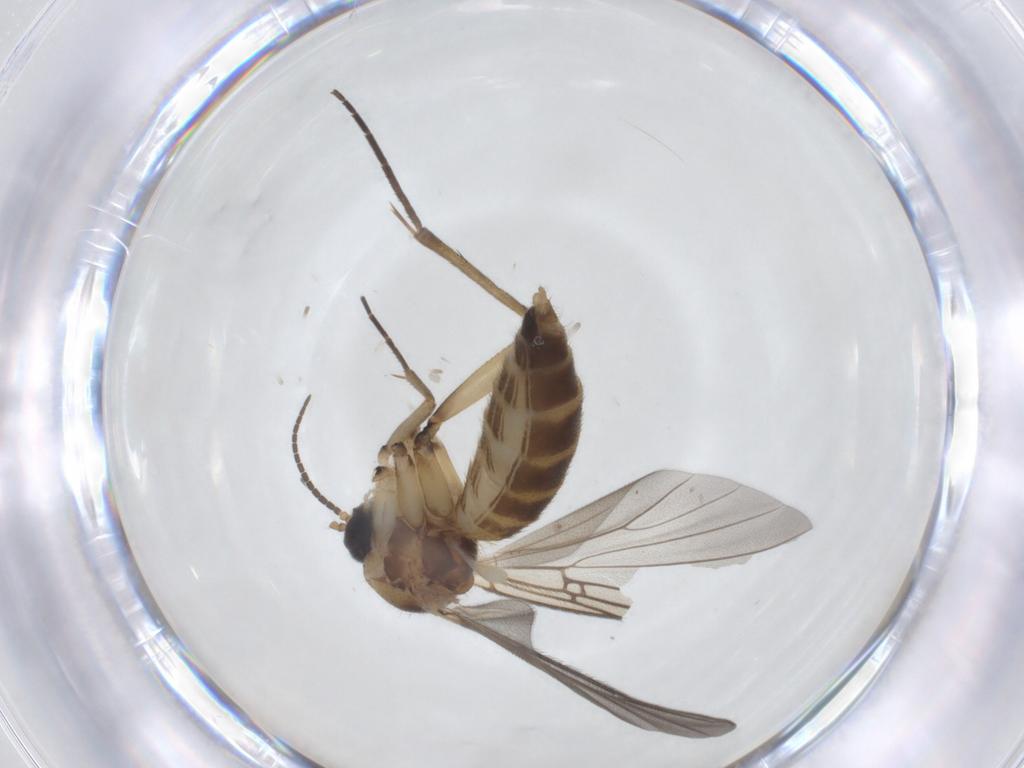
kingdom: Animalia
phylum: Arthropoda
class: Insecta
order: Diptera
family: Mycetophilidae
